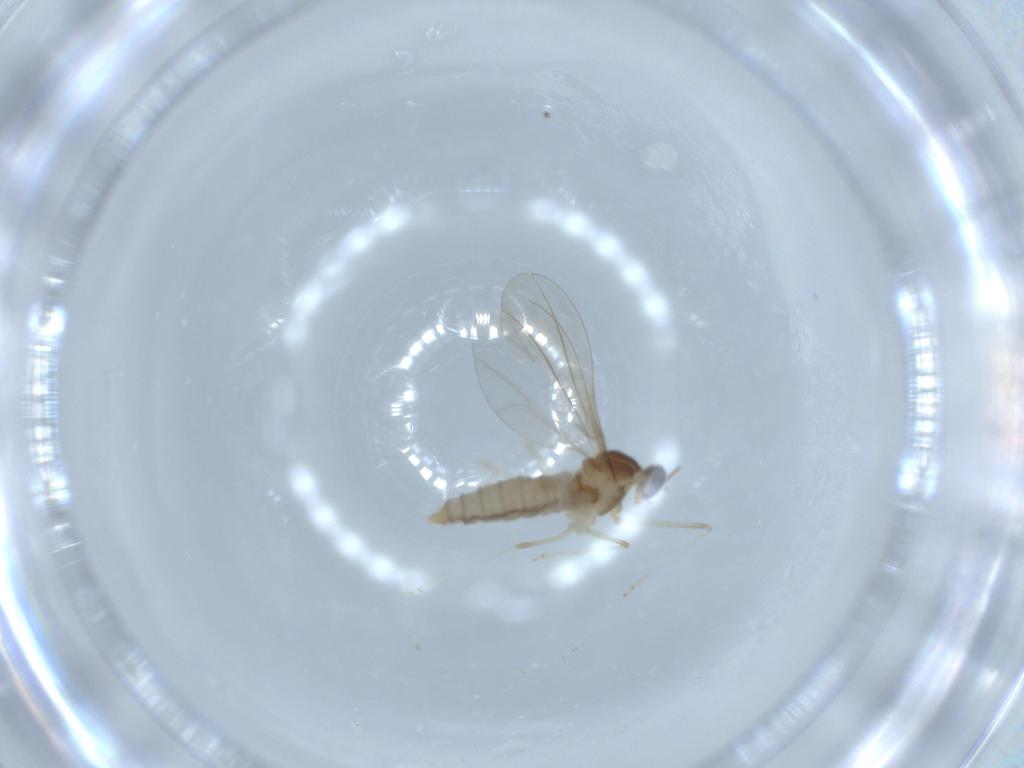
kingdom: Animalia
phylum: Arthropoda
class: Insecta
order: Diptera
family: Cecidomyiidae
